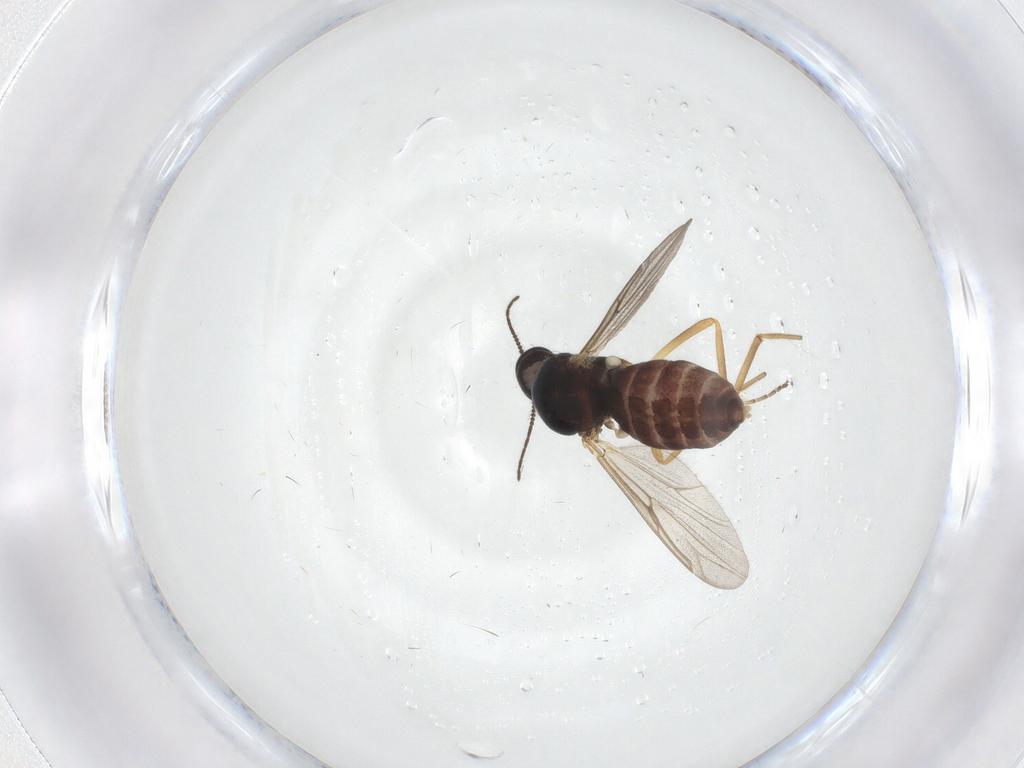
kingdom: Animalia
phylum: Arthropoda
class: Insecta
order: Diptera
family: Ceratopogonidae
